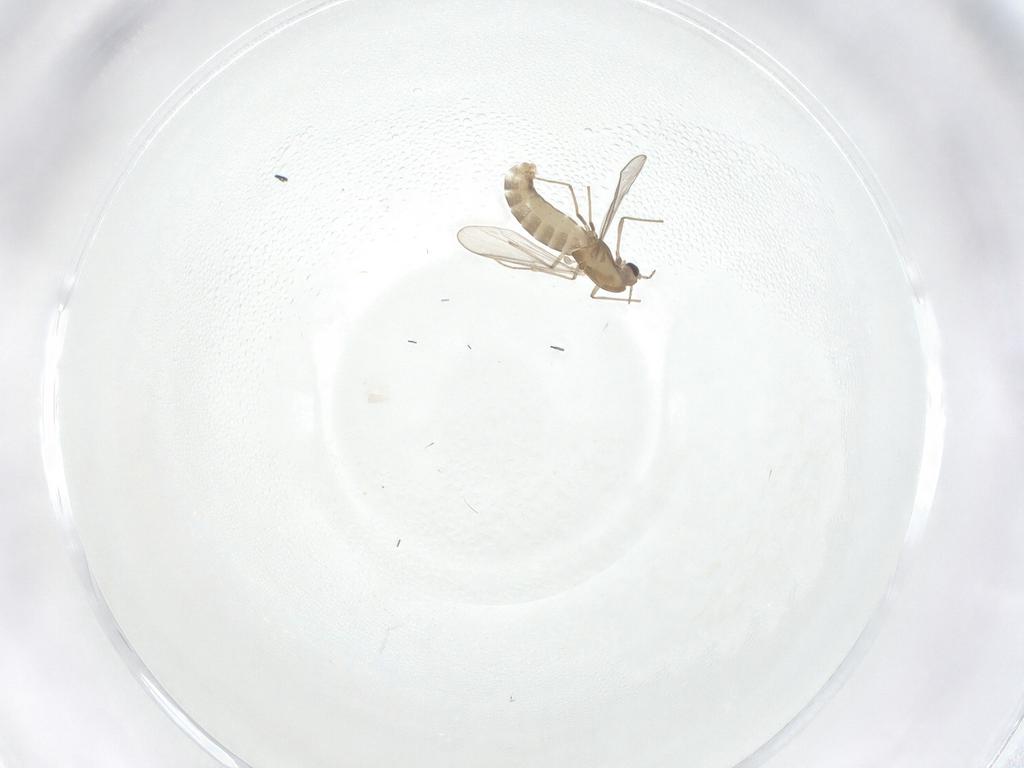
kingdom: Animalia
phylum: Arthropoda
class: Insecta
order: Diptera
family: Chironomidae
